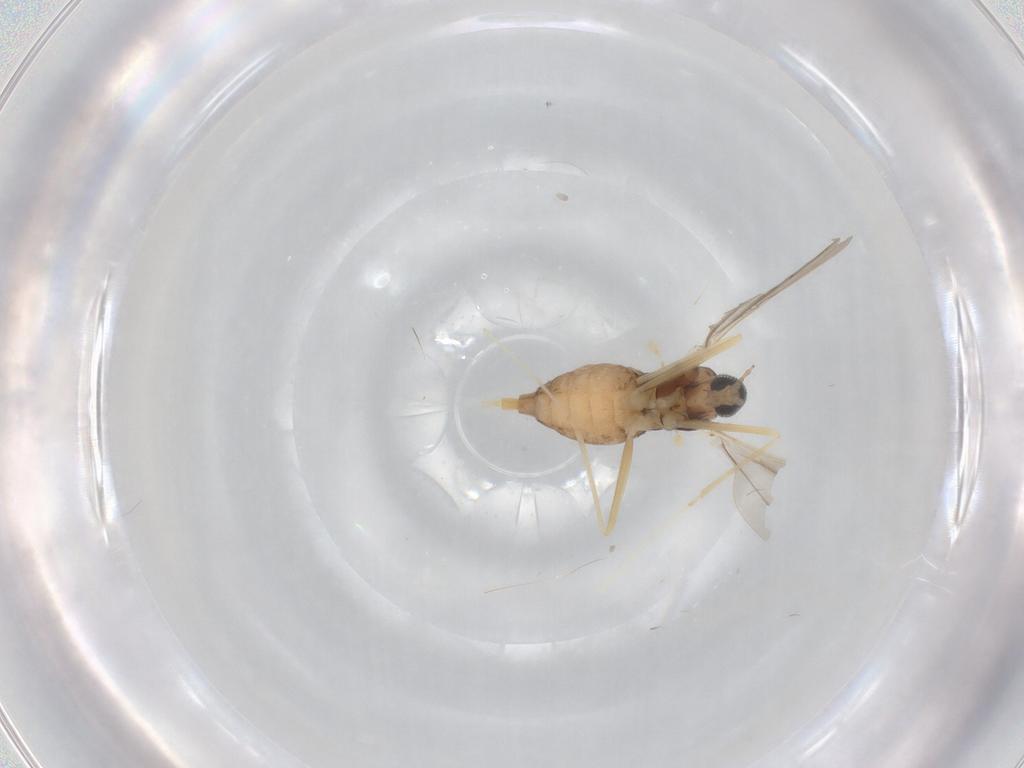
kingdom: Animalia
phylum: Arthropoda
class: Insecta
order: Diptera
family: Cecidomyiidae
